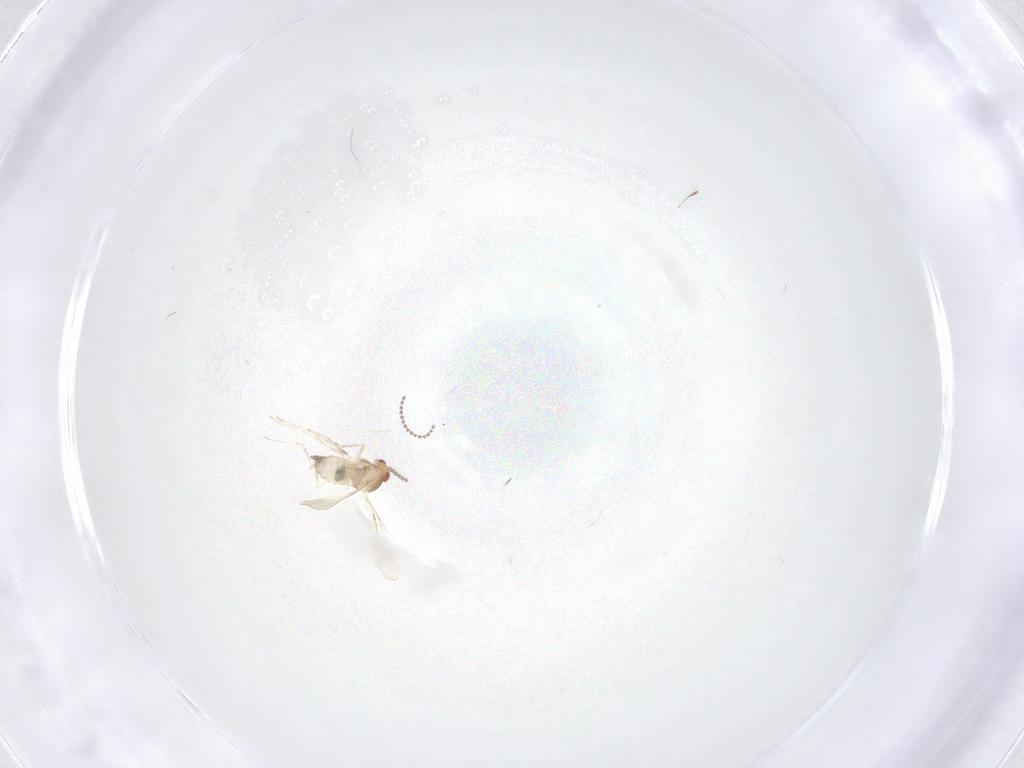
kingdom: Animalia
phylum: Arthropoda
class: Insecta
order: Diptera
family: Cecidomyiidae
